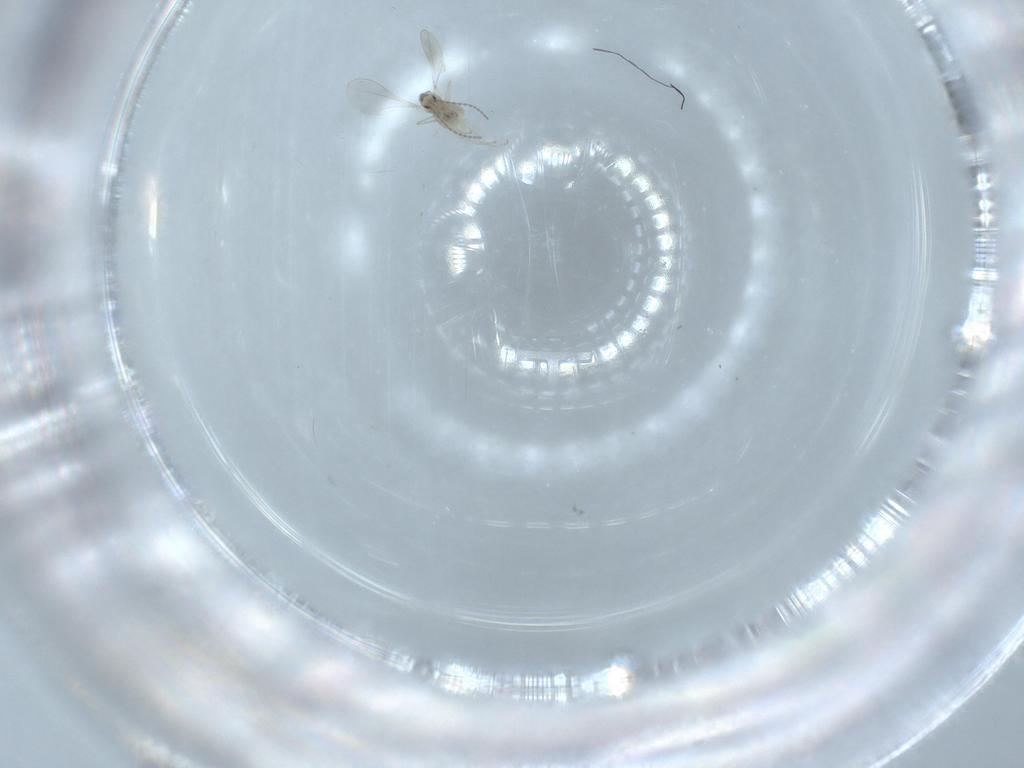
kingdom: Animalia
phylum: Arthropoda
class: Insecta
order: Diptera
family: Cecidomyiidae
